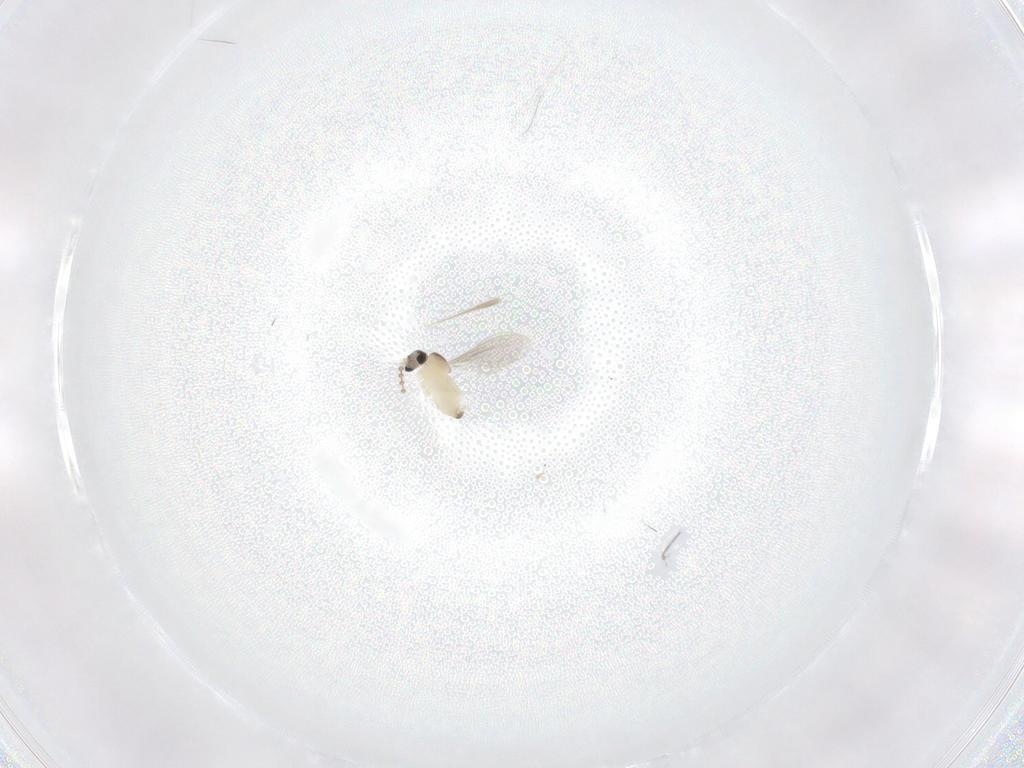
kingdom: Animalia
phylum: Arthropoda
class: Insecta
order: Diptera
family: Cecidomyiidae
